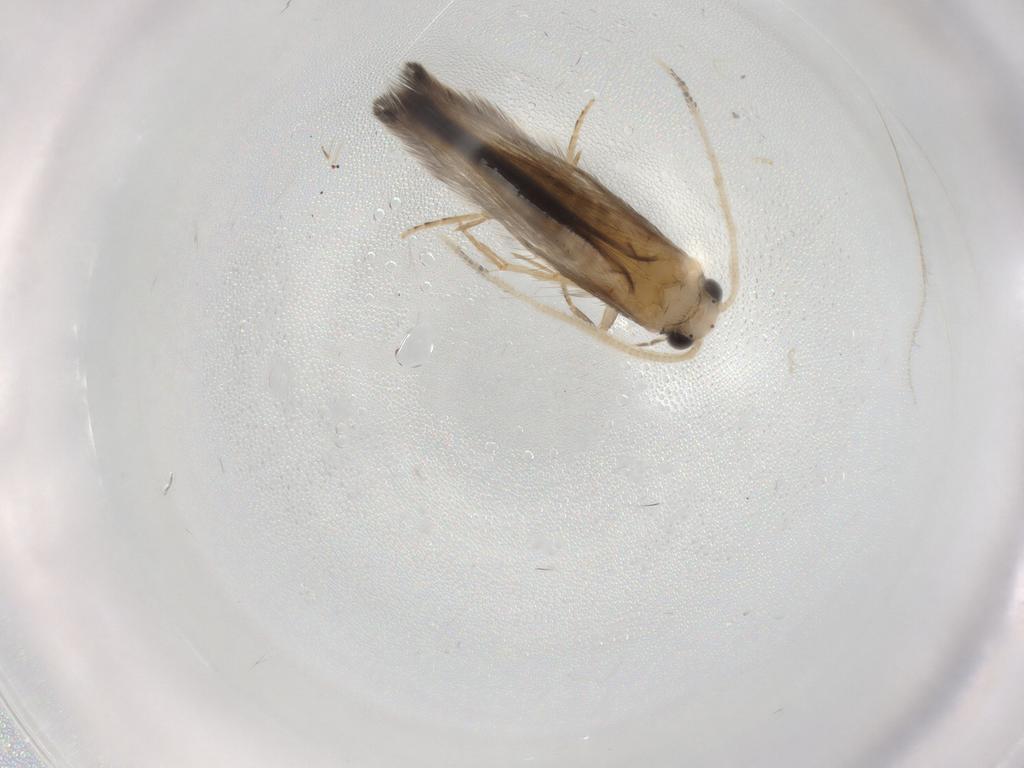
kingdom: Animalia
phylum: Arthropoda
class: Insecta
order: Trichoptera
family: Hydroptilidae
